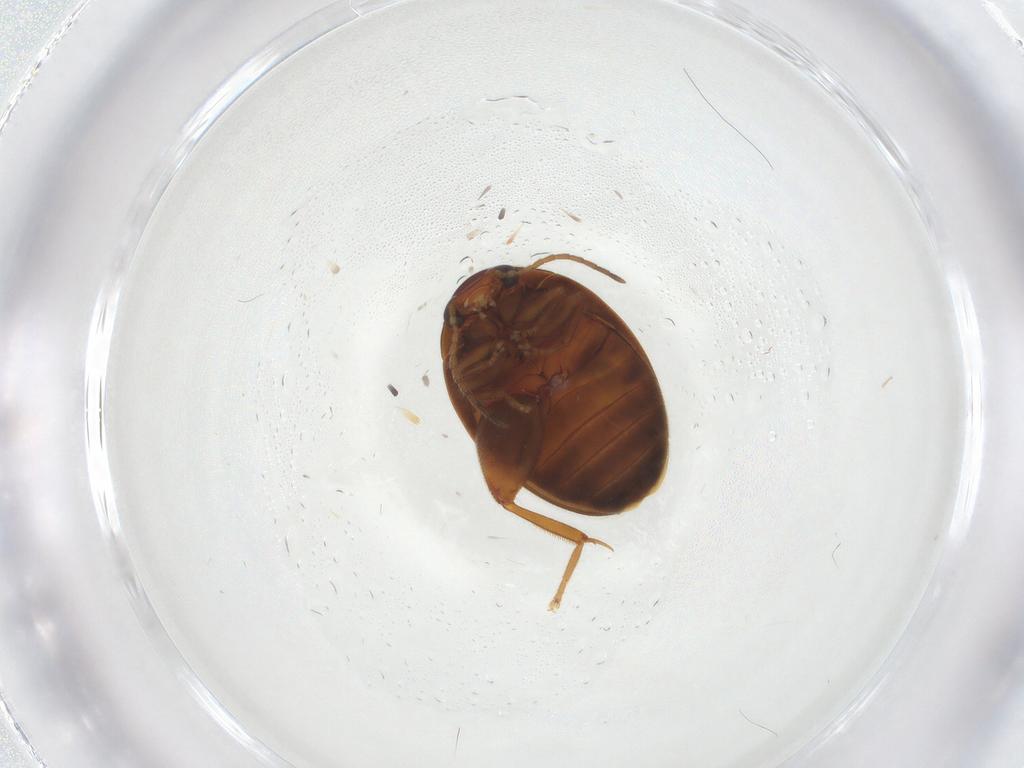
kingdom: Animalia
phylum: Arthropoda
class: Insecta
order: Coleoptera
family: Scirtidae
